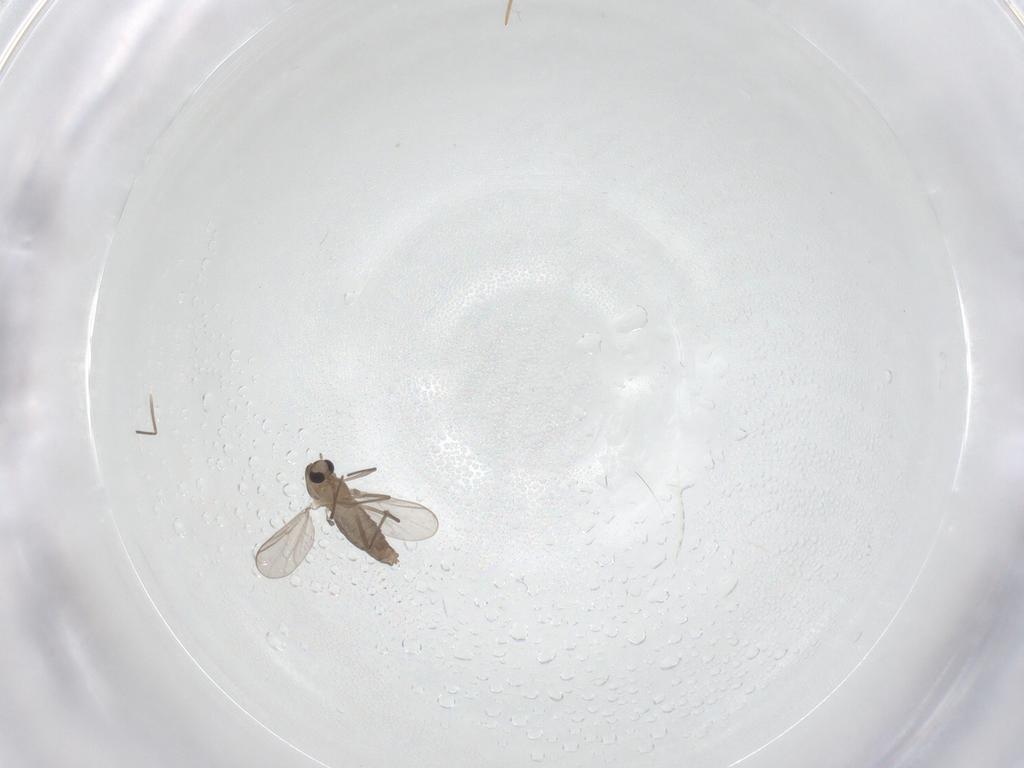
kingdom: Animalia
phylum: Arthropoda
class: Insecta
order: Diptera
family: Chironomidae
